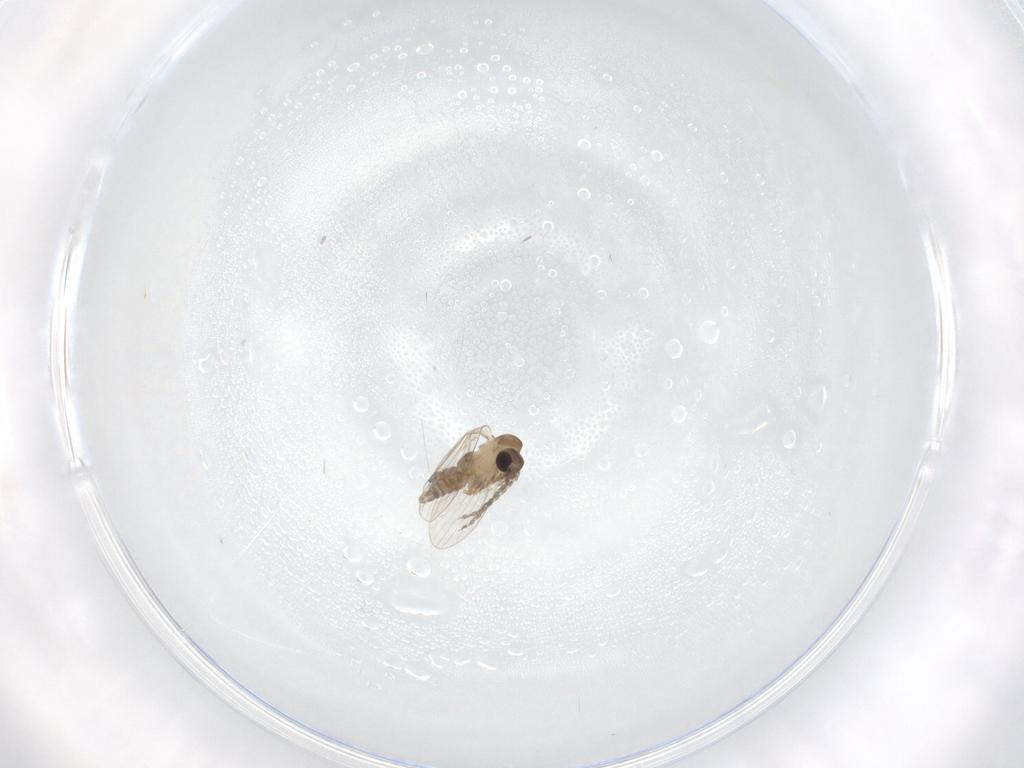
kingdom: Animalia
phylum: Arthropoda
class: Insecta
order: Diptera
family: Psychodidae
